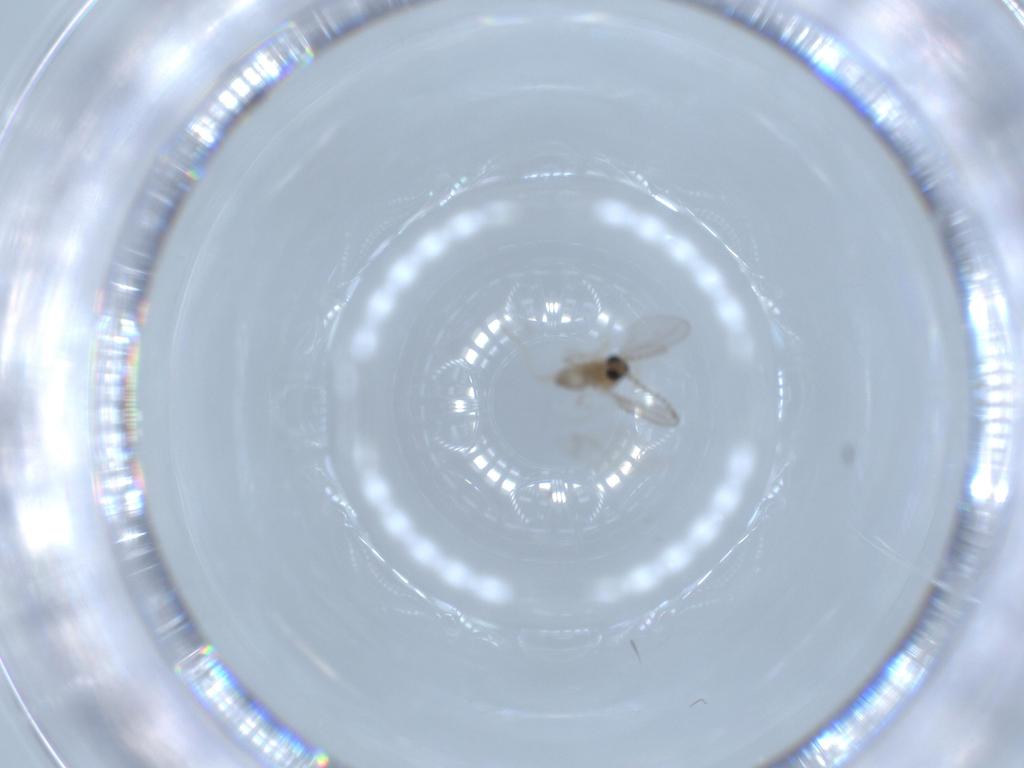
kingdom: Animalia
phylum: Arthropoda
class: Insecta
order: Diptera
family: Cecidomyiidae
